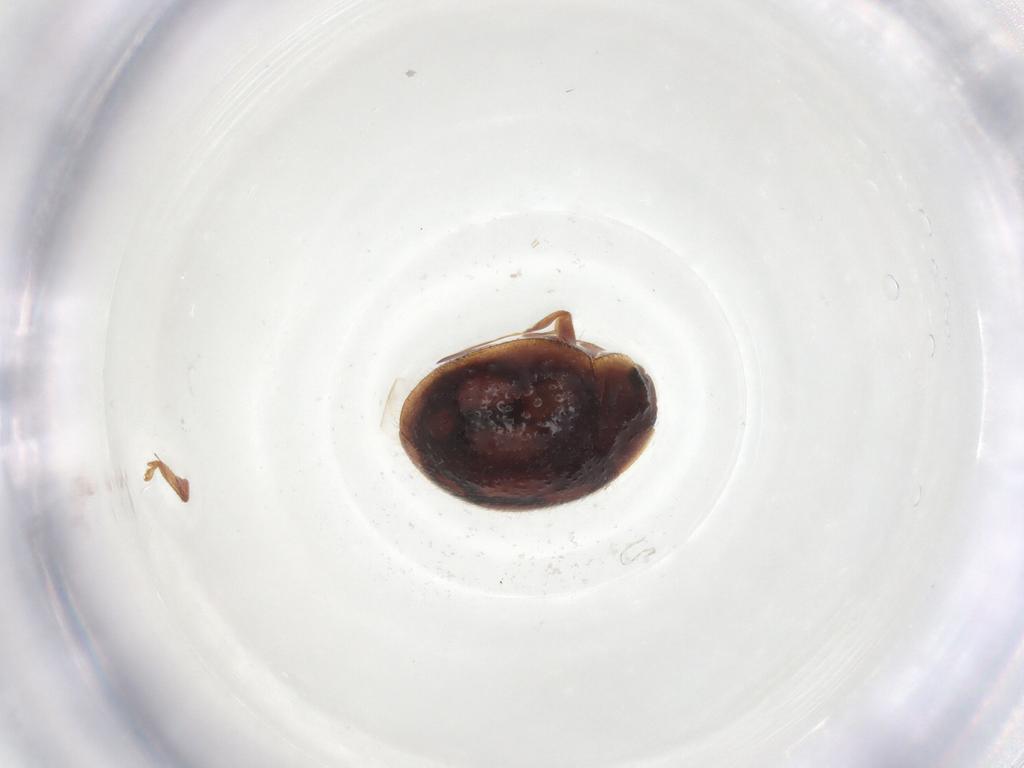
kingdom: Animalia
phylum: Arthropoda
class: Insecta
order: Coleoptera
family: Coccinellidae
